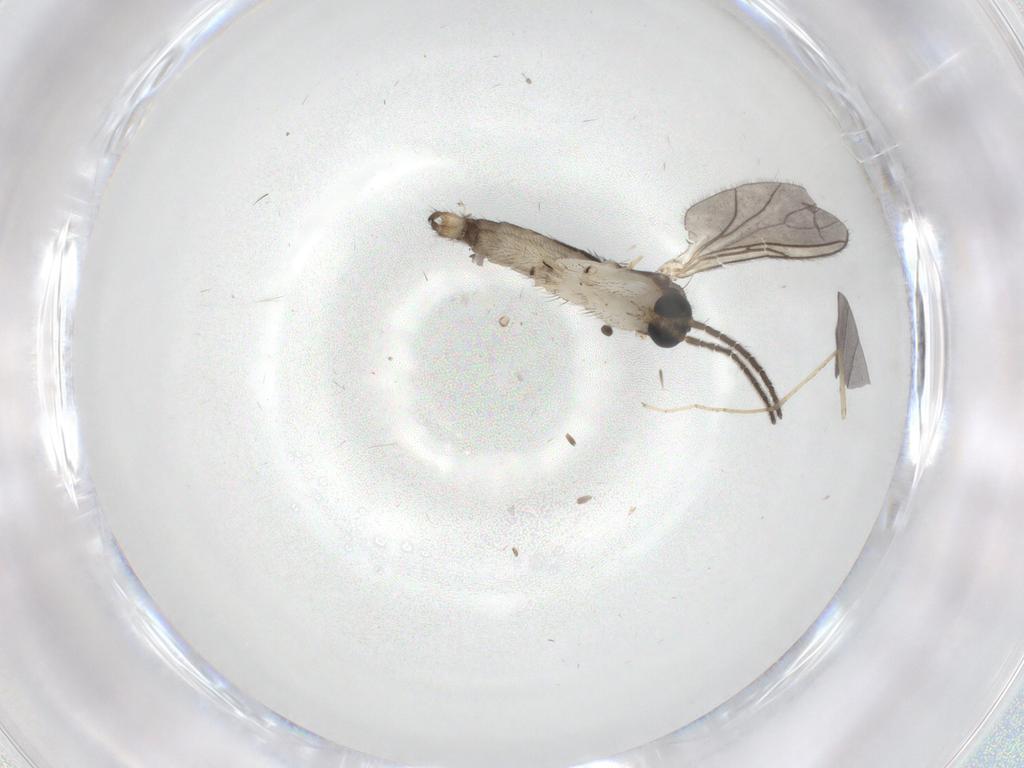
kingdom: Animalia
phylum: Arthropoda
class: Insecta
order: Diptera
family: Sciaridae
